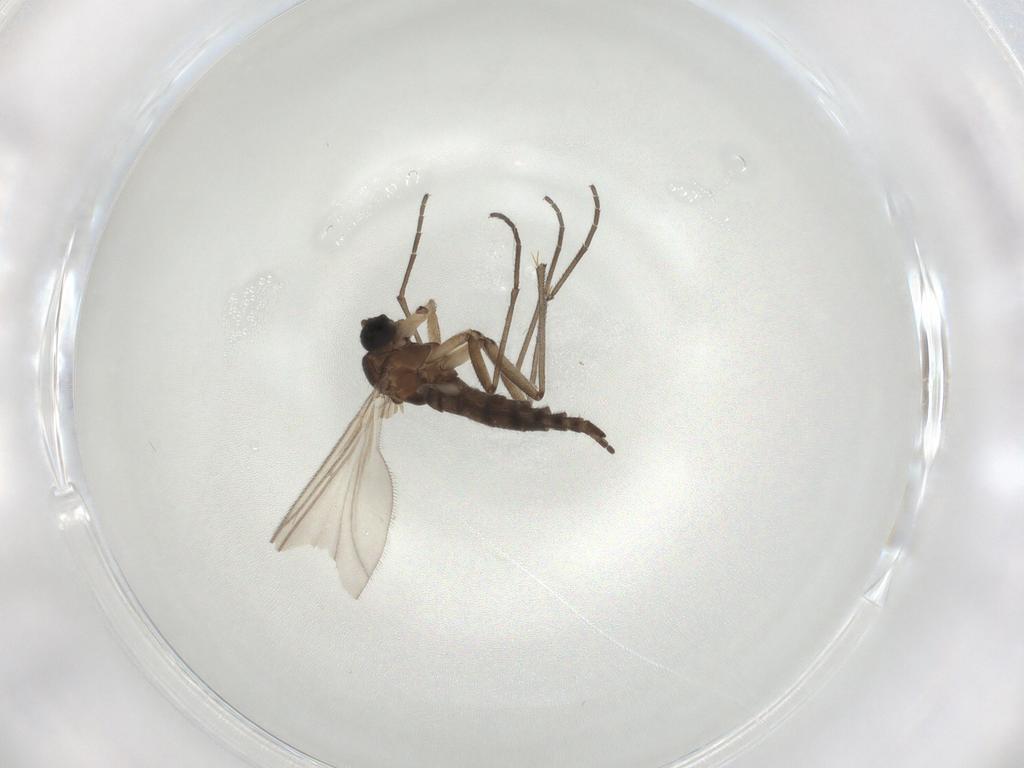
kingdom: Animalia
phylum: Arthropoda
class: Insecta
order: Diptera
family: Sciaridae
